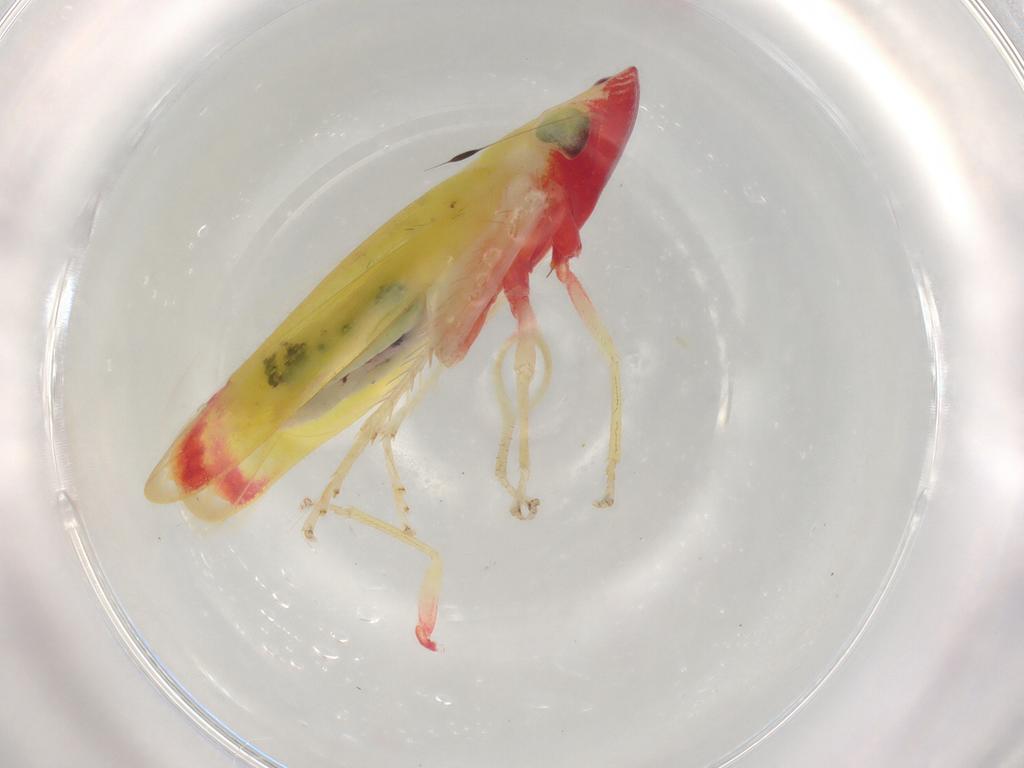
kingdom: Animalia
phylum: Arthropoda
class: Insecta
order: Hemiptera
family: Cicadellidae
